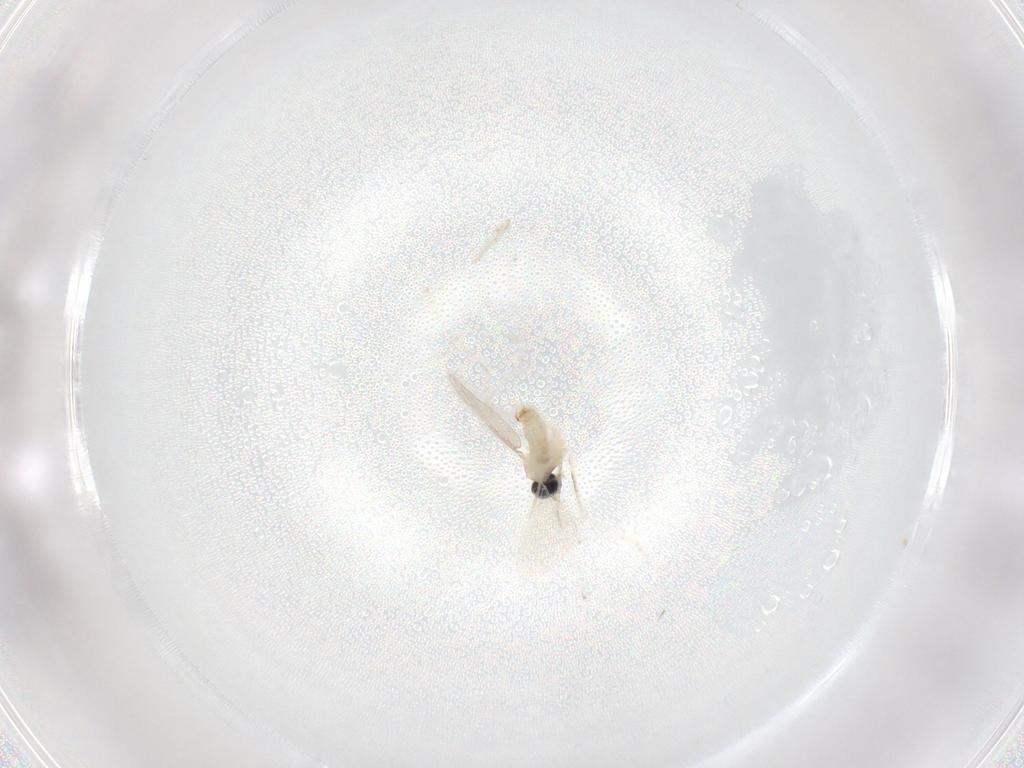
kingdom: Animalia
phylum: Arthropoda
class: Insecta
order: Diptera
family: Cecidomyiidae
